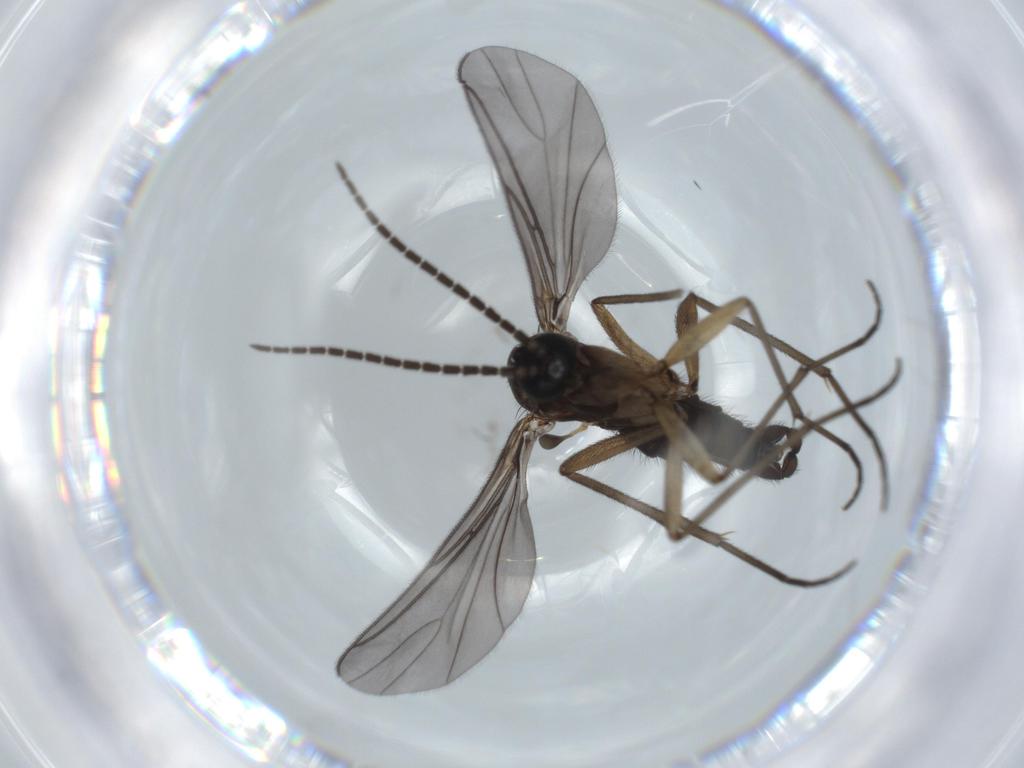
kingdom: Animalia
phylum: Arthropoda
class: Insecta
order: Diptera
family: Sciaridae
